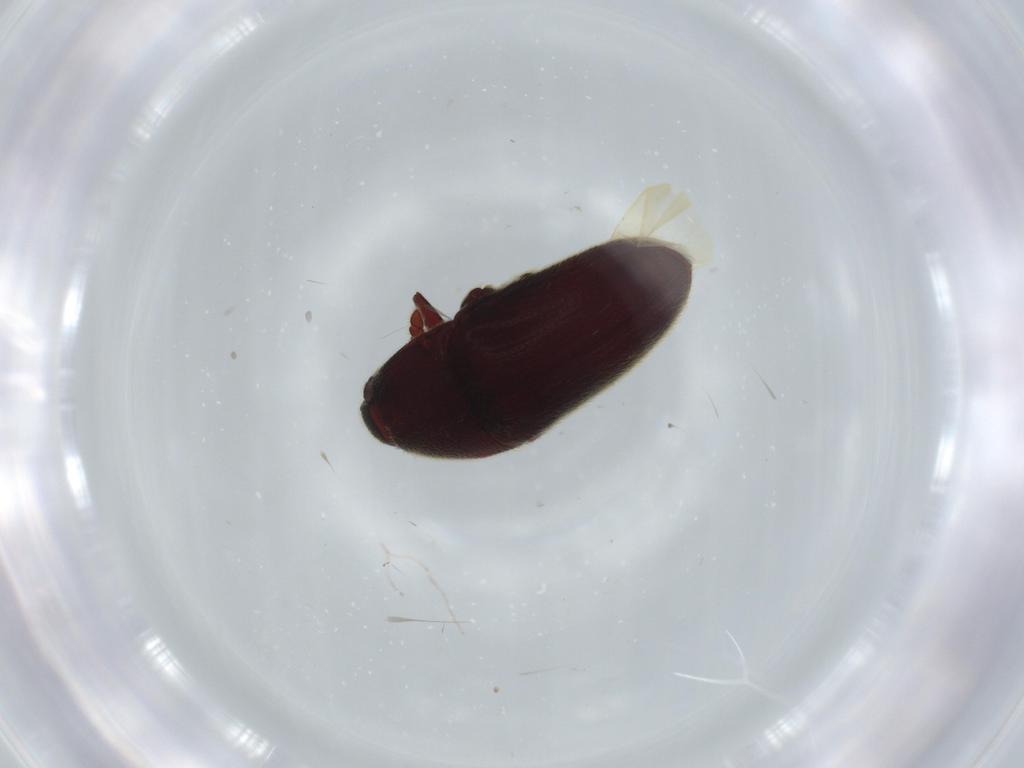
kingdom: Animalia
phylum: Arthropoda
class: Insecta
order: Coleoptera
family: Throscidae
